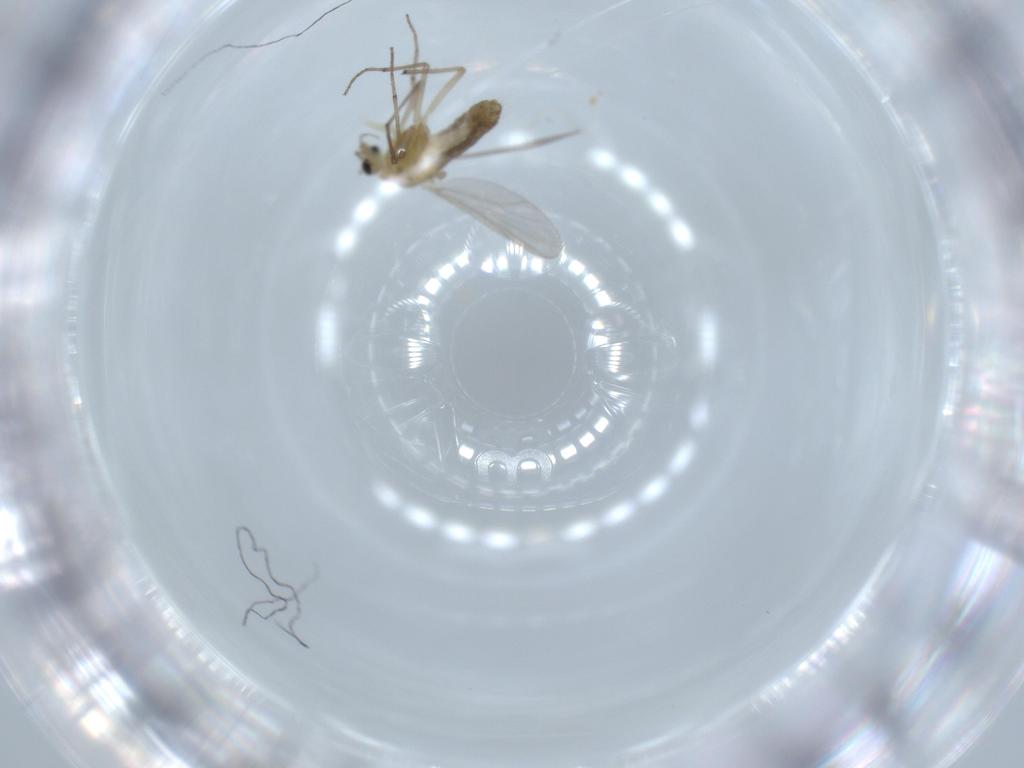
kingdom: Animalia
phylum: Arthropoda
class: Insecta
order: Diptera
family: Chironomidae
